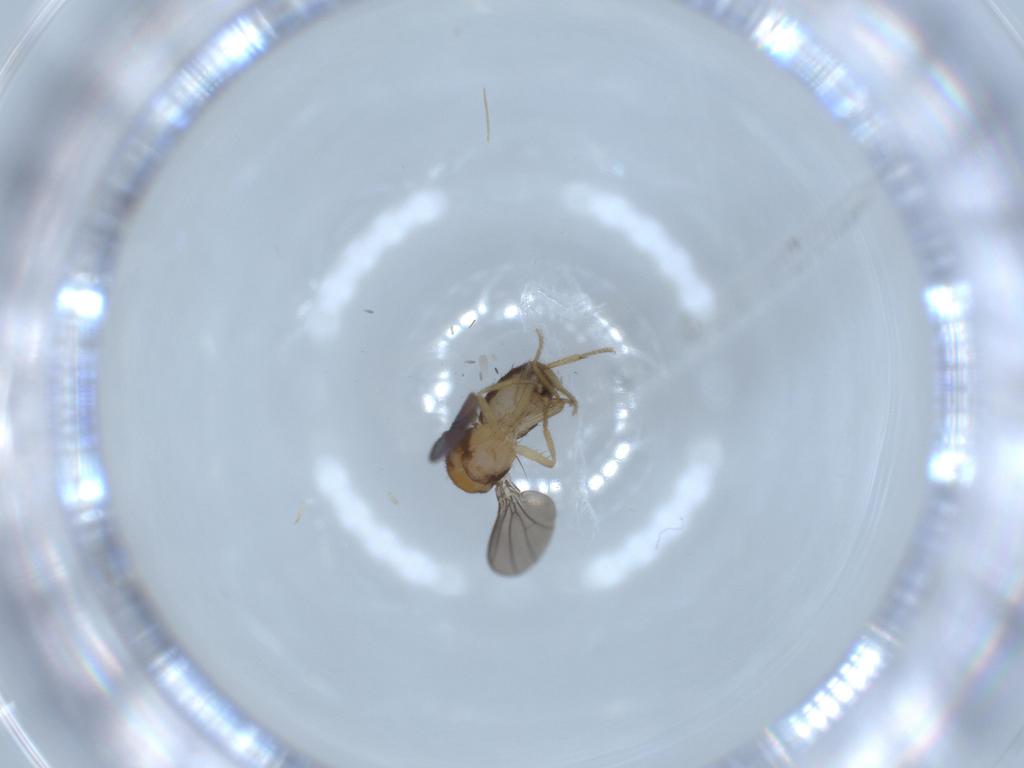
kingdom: Animalia
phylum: Arthropoda
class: Insecta
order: Diptera
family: Drosophilidae
